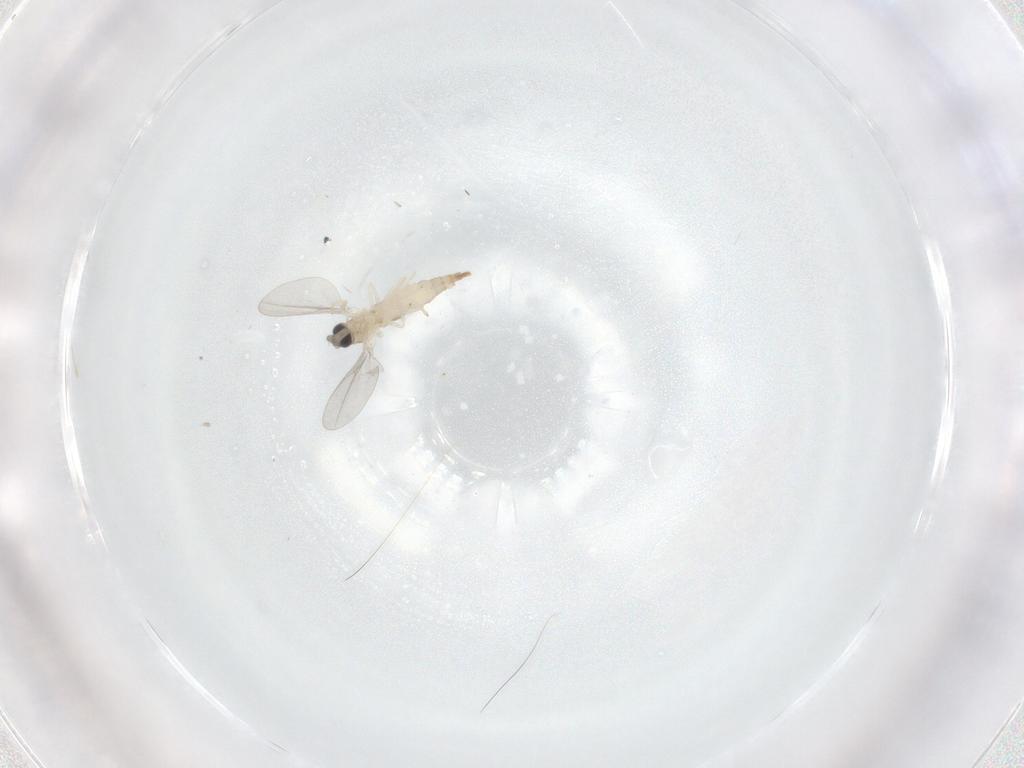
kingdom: Animalia
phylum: Arthropoda
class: Insecta
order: Diptera
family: Cecidomyiidae
